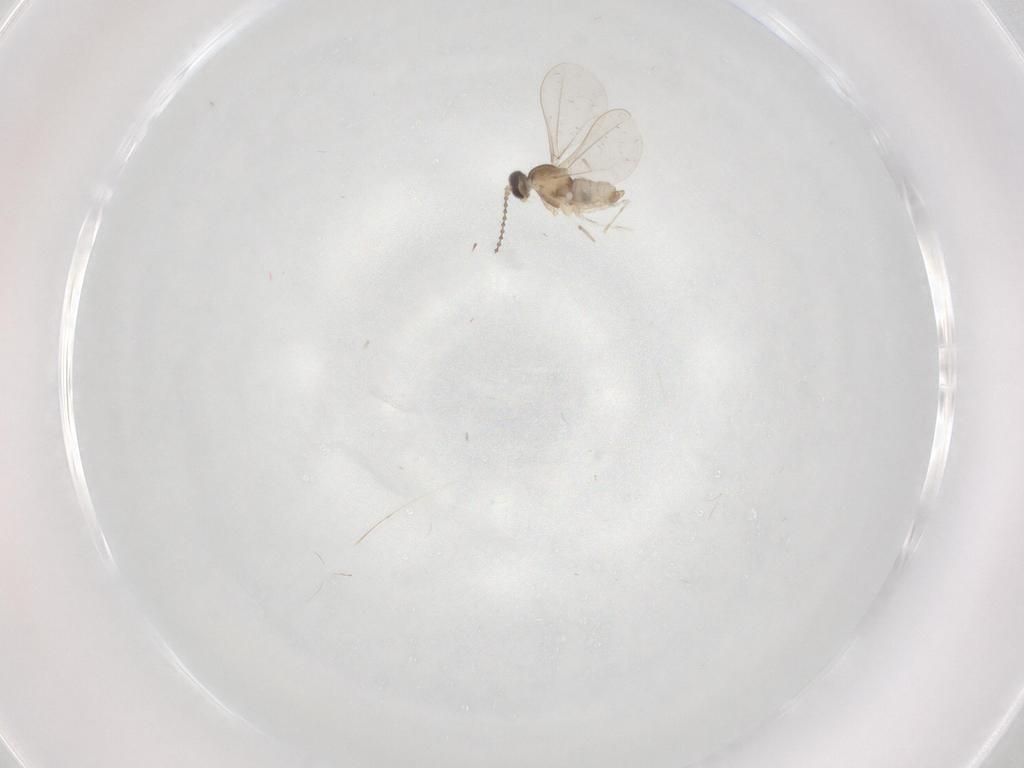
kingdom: Animalia
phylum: Arthropoda
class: Insecta
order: Diptera
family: Cecidomyiidae
